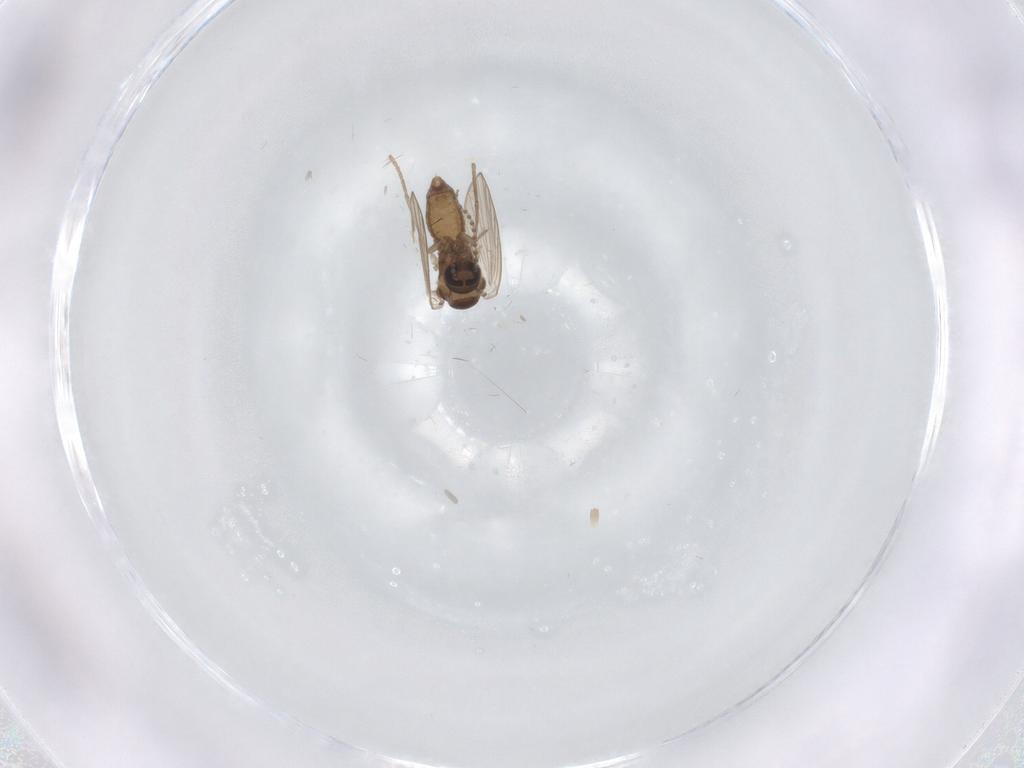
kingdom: Animalia
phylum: Arthropoda
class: Insecta
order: Diptera
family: Psychodidae
